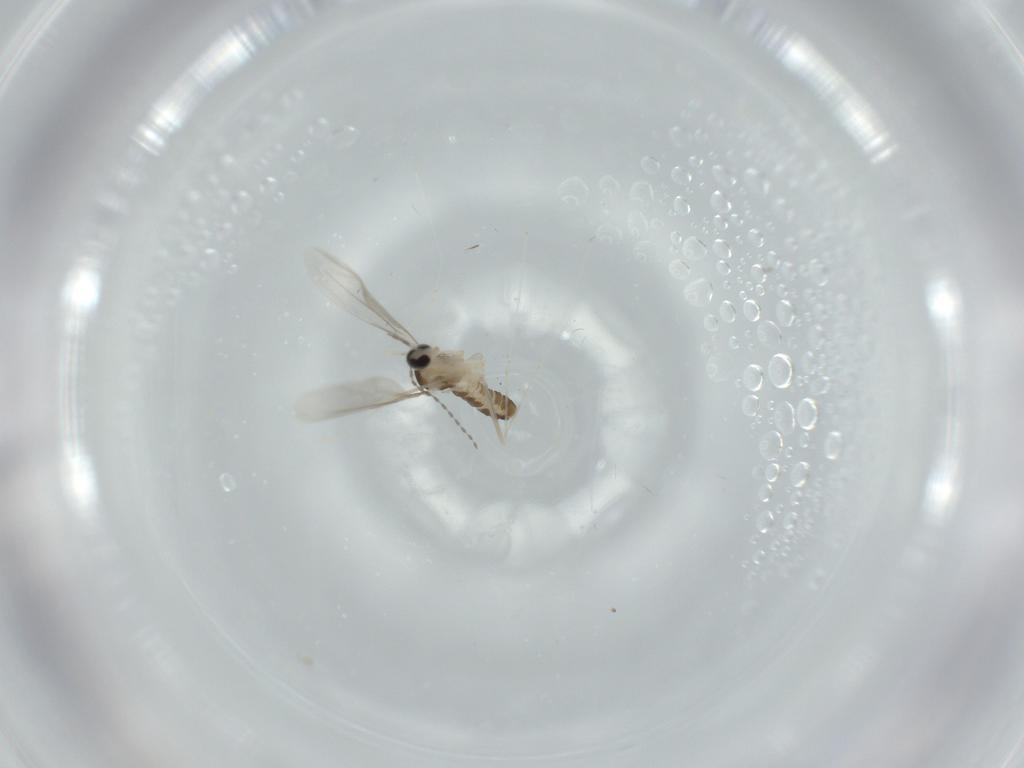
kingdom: Animalia
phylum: Arthropoda
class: Insecta
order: Diptera
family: Cecidomyiidae
